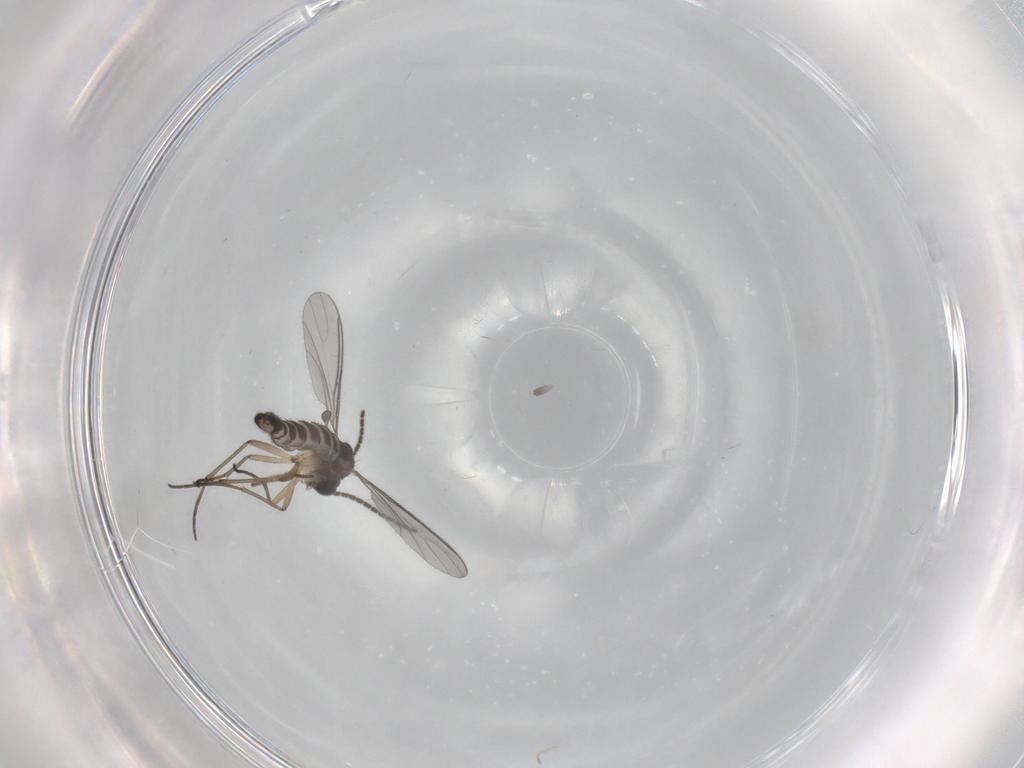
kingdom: Animalia
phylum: Arthropoda
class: Insecta
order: Diptera
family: Sciaridae
